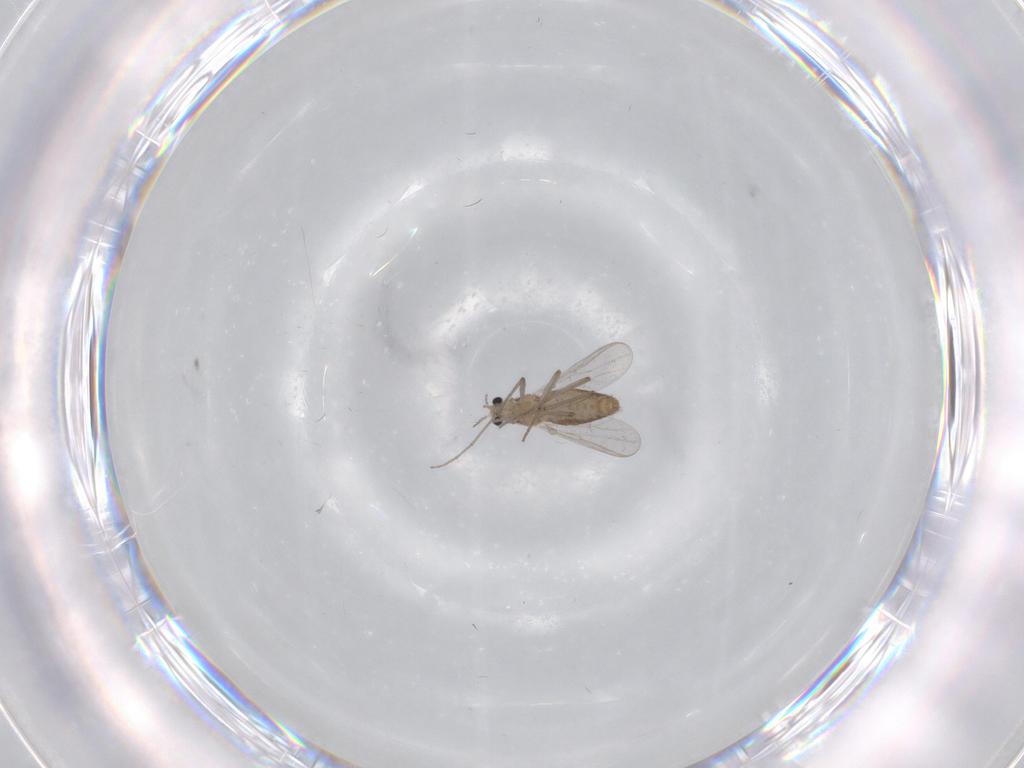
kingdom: Animalia
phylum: Arthropoda
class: Insecta
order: Diptera
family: Chironomidae
